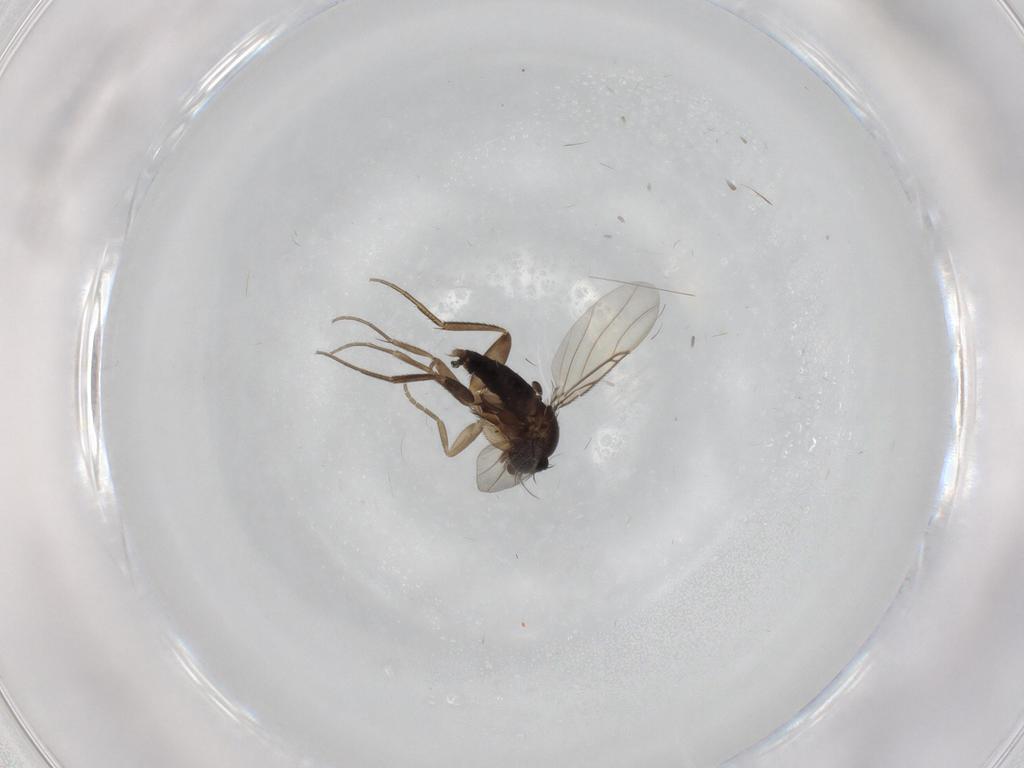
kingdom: Animalia
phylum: Arthropoda
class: Insecta
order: Diptera
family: Phoridae
